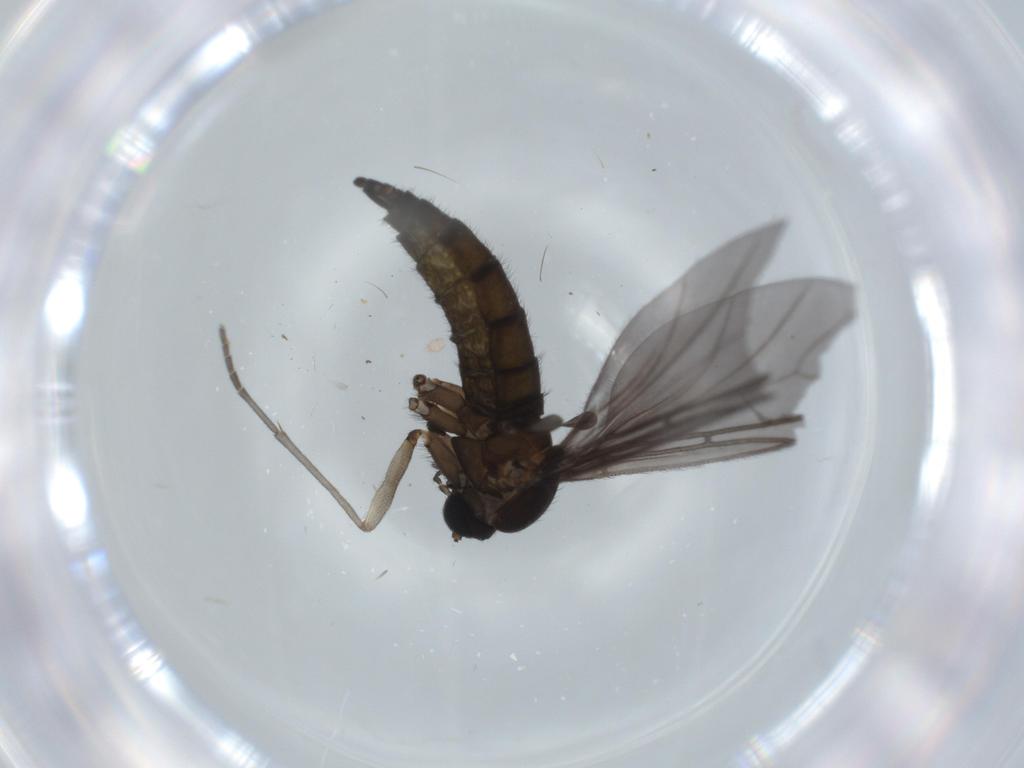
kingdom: Animalia
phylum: Arthropoda
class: Insecta
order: Diptera
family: Sciaridae
